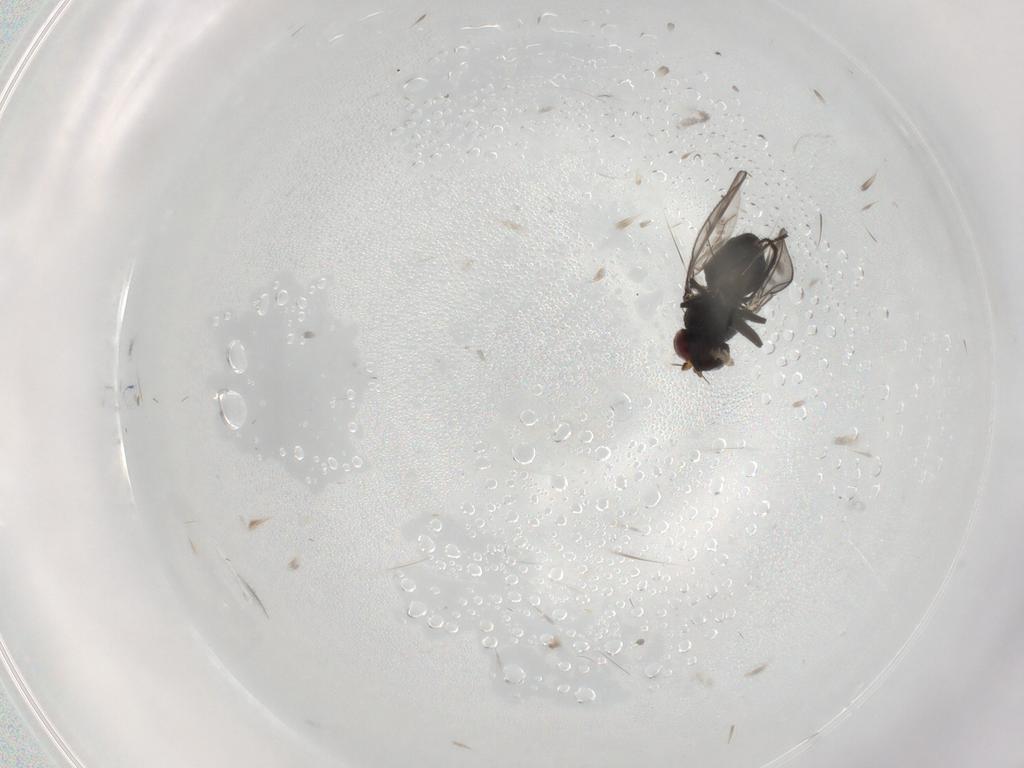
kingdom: Animalia
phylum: Arthropoda
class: Insecta
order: Diptera
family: Ephydridae
